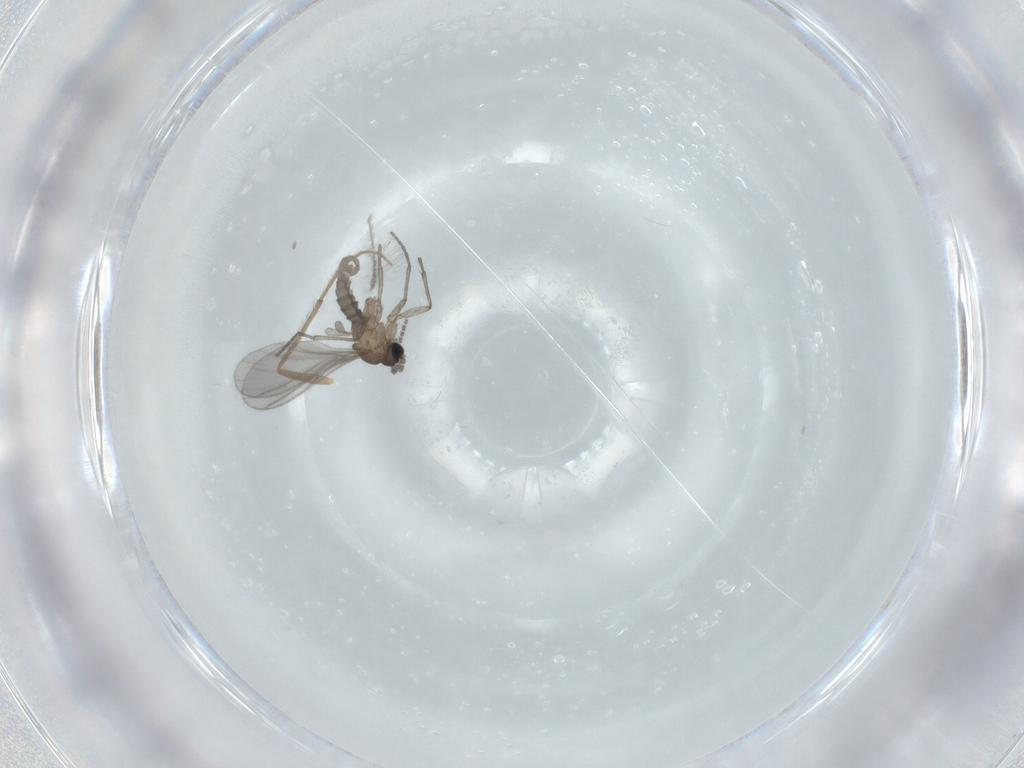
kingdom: Animalia
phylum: Arthropoda
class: Insecta
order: Diptera
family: Sciaridae
